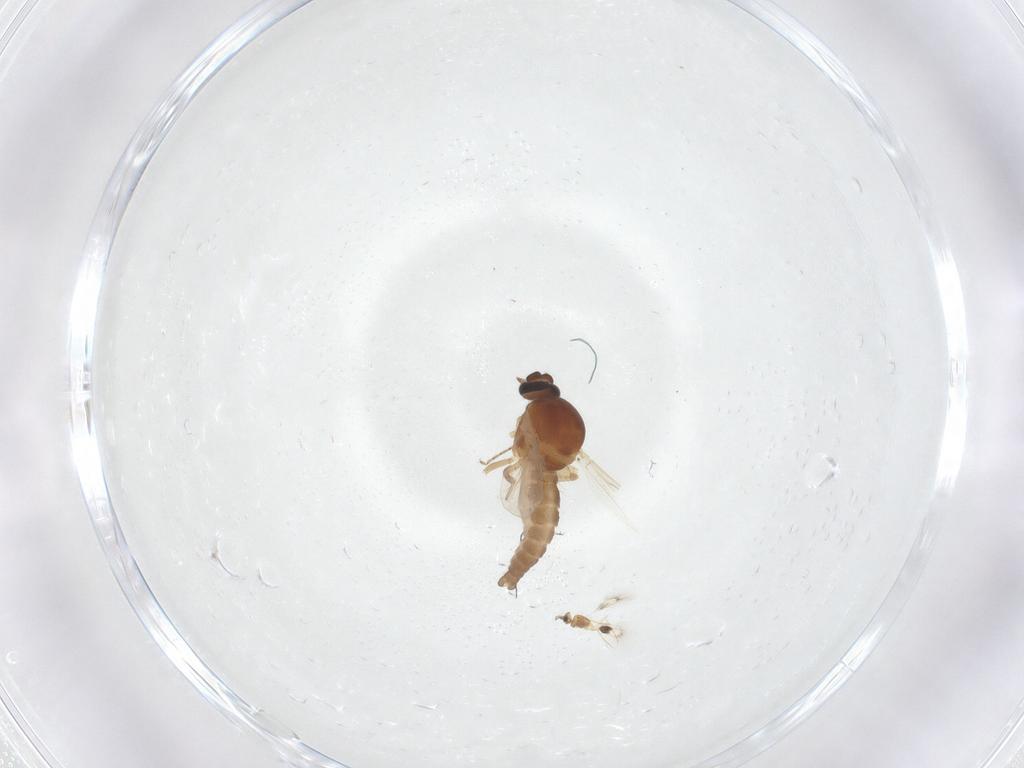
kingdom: Animalia
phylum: Arthropoda
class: Insecta
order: Diptera
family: Ceratopogonidae
